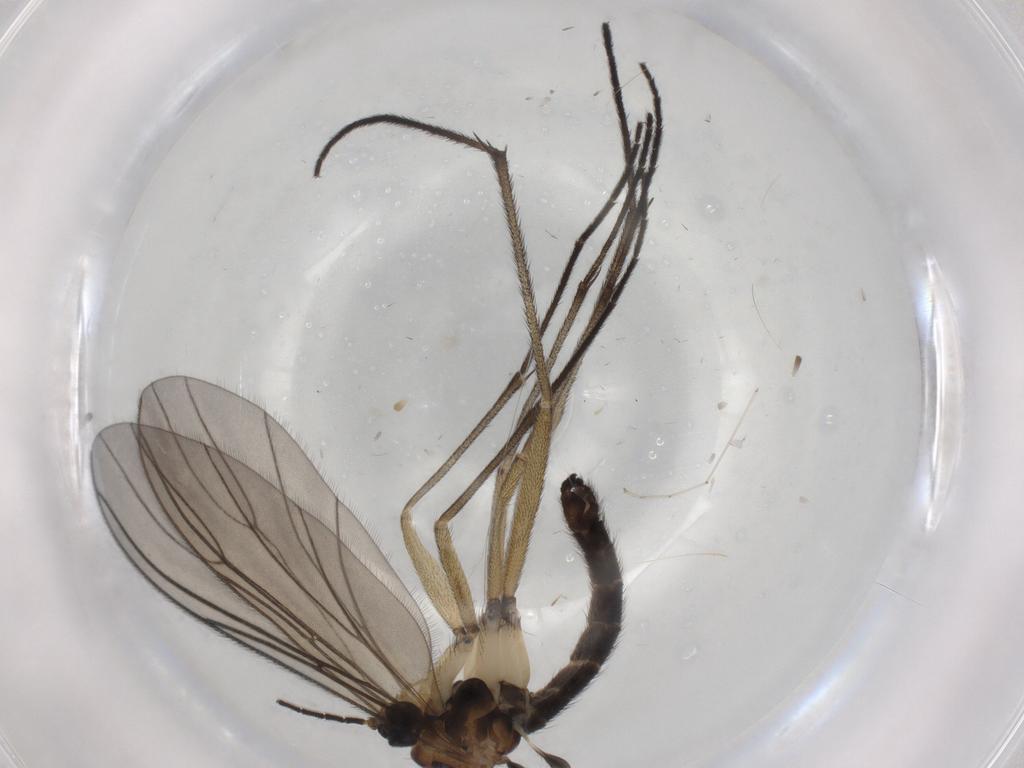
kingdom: Animalia
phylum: Arthropoda
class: Insecta
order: Diptera
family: Sciaridae
